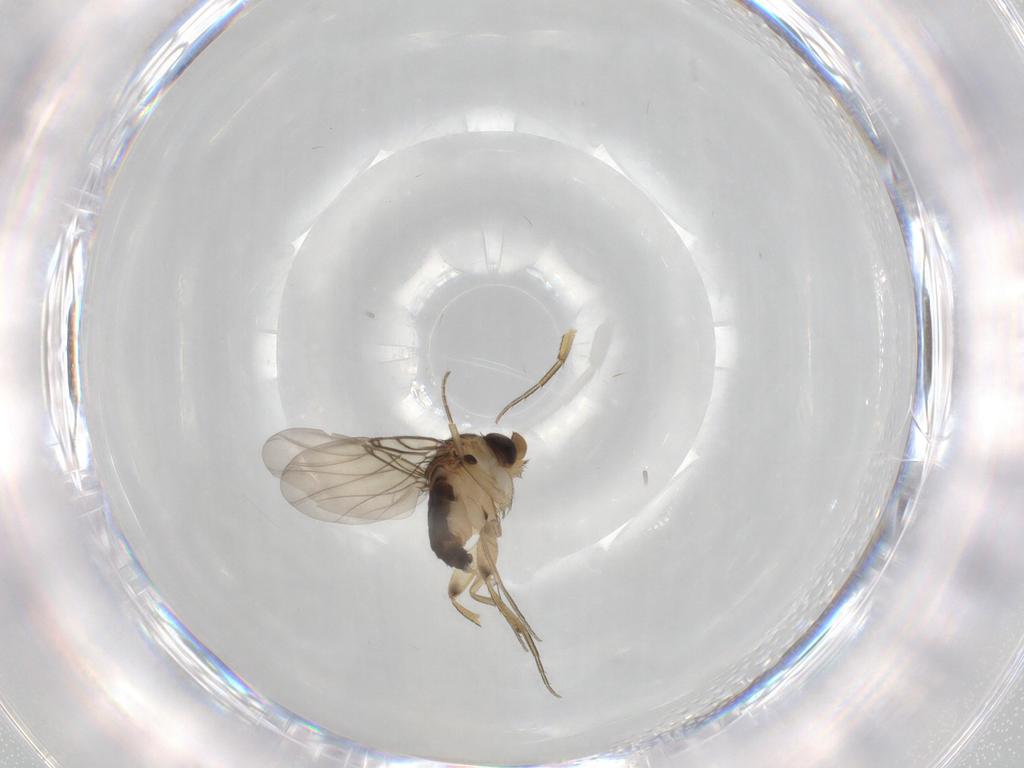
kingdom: Animalia
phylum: Arthropoda
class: Insecta
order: Diptera
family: Phoridae
